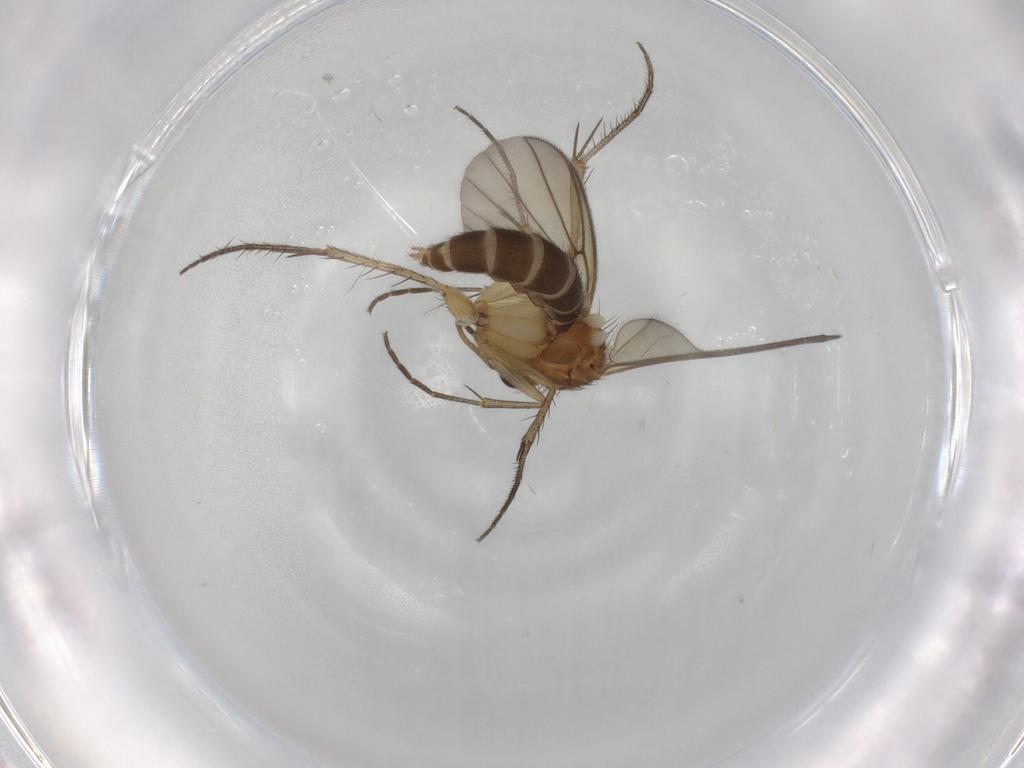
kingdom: Animalia
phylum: Arthropoda
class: Insecta
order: Diptera
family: Mycetophilidae
